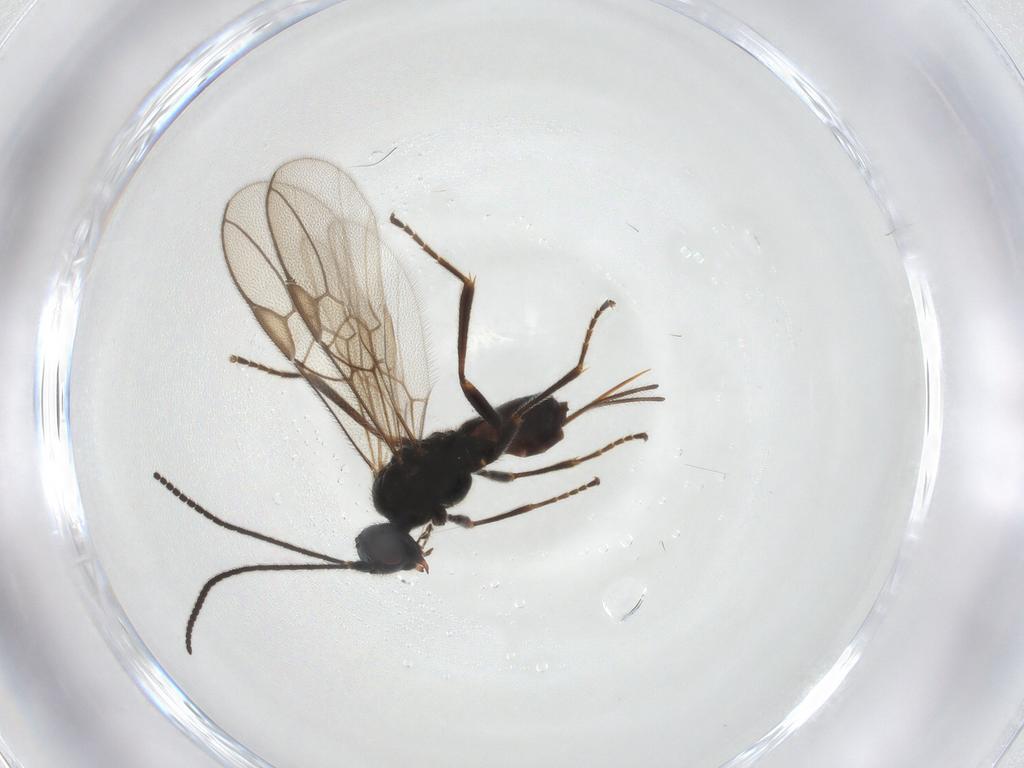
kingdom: Animalia
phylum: Arthropoda
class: Insecta
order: Hymenoptera
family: Braconidae
